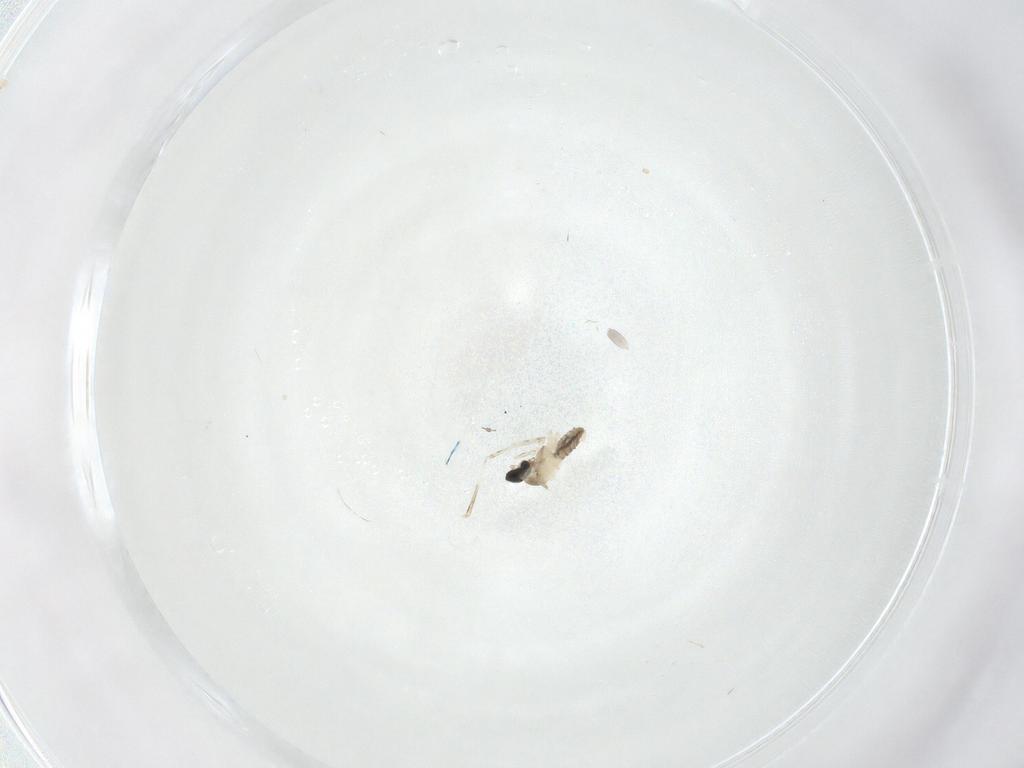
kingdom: Animalia
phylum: Arthropoda
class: Insecta
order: Diptera
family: Cecidomyiidae
